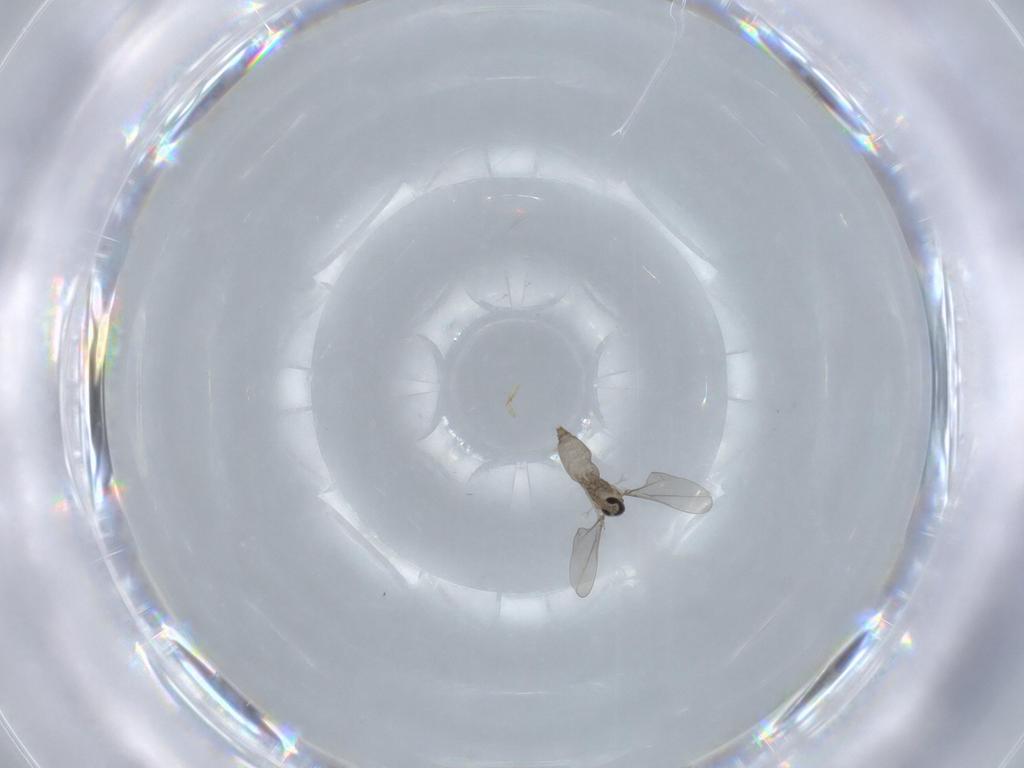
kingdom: Animalia
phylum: Arthropoda
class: Insecta
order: Diptera
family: Cecidomyiidae
